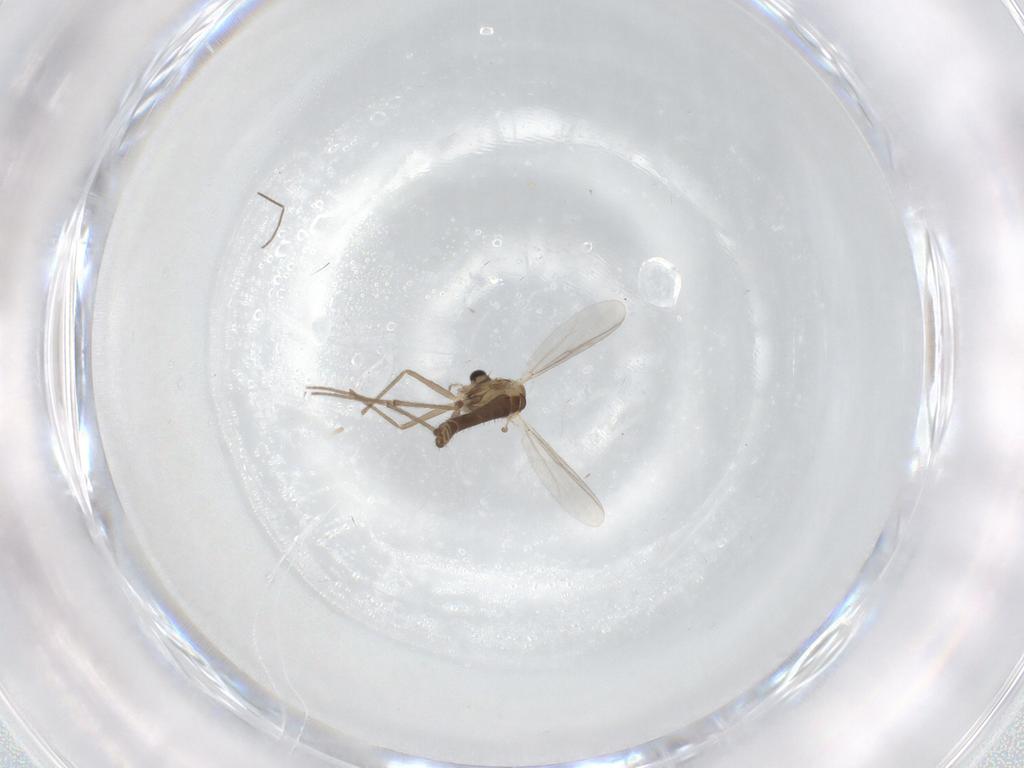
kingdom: Animalia
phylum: Arthropoda
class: Insecta
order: Diptera
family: Chironomidae
